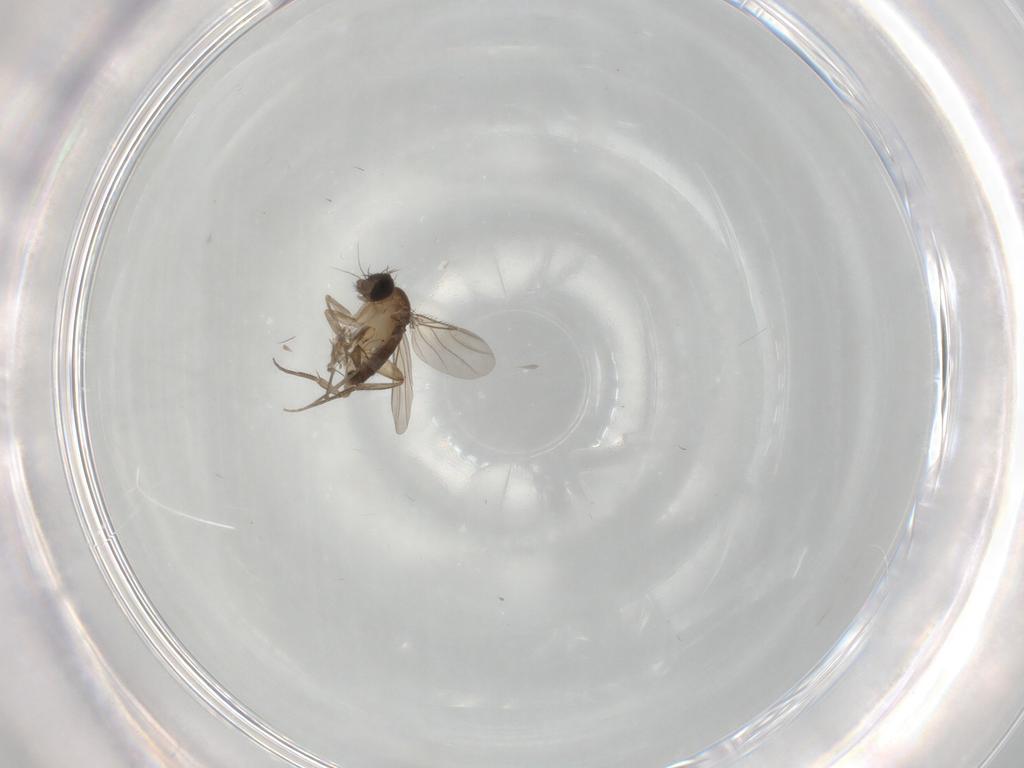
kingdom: Animalia
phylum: Arthropoda
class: Insecta
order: Diptera
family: Phoridae
